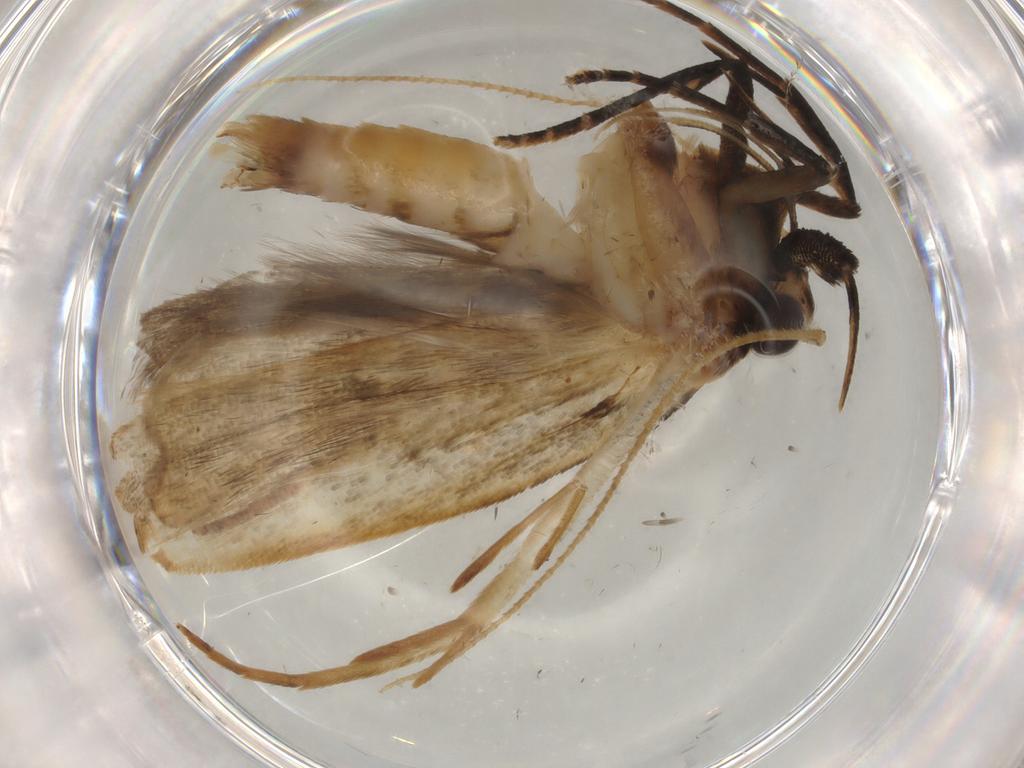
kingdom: Animalia
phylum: Arthropoda
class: Insecta
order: Lepidoptera
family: Gelechiidae
